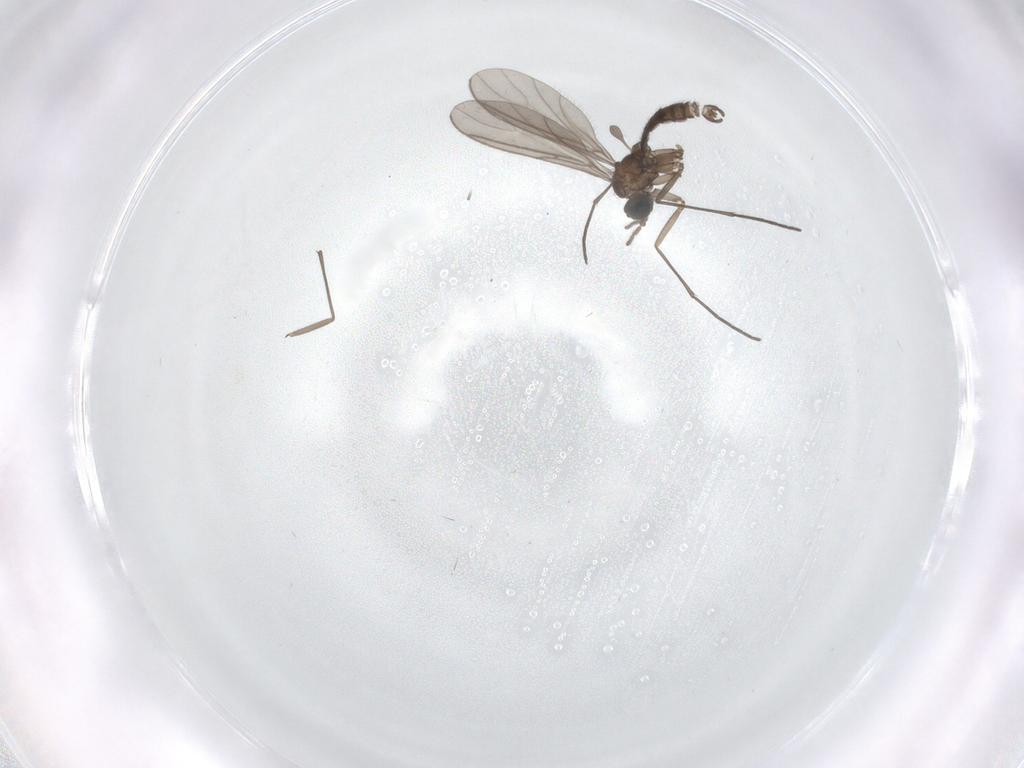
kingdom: Animalia
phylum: Arthropoda
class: Insecta
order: Diptera
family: Sciaridae
